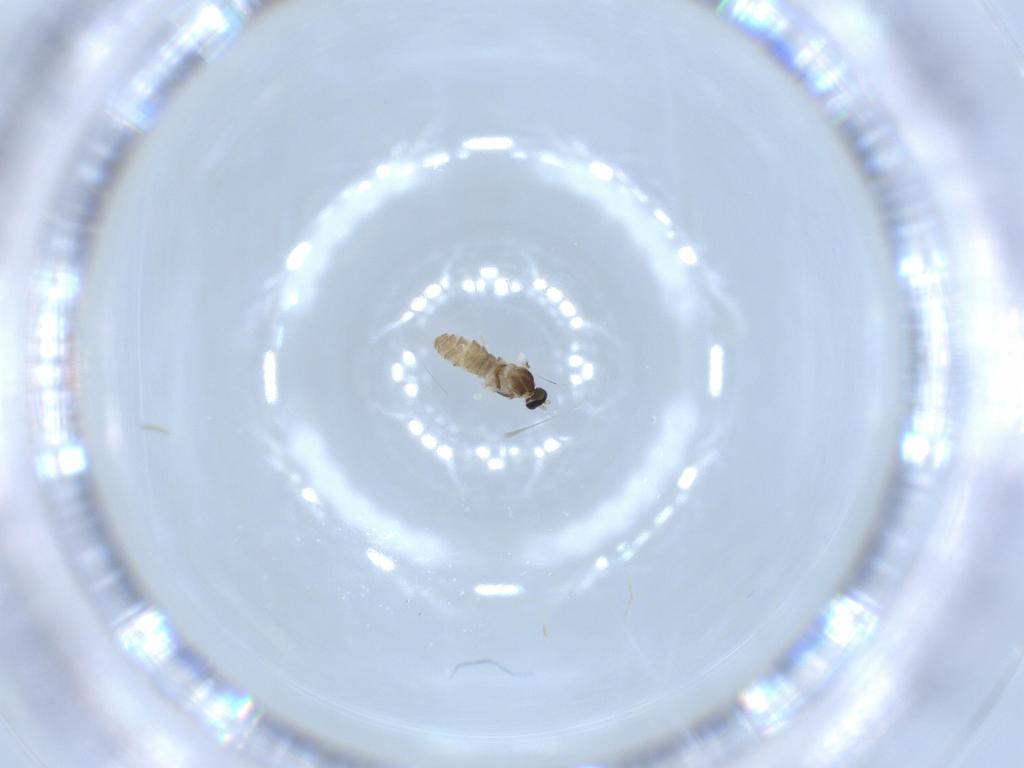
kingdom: Animalia
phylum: Arthropoda
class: Insecta
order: Diptera
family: Cecidomyiidae
